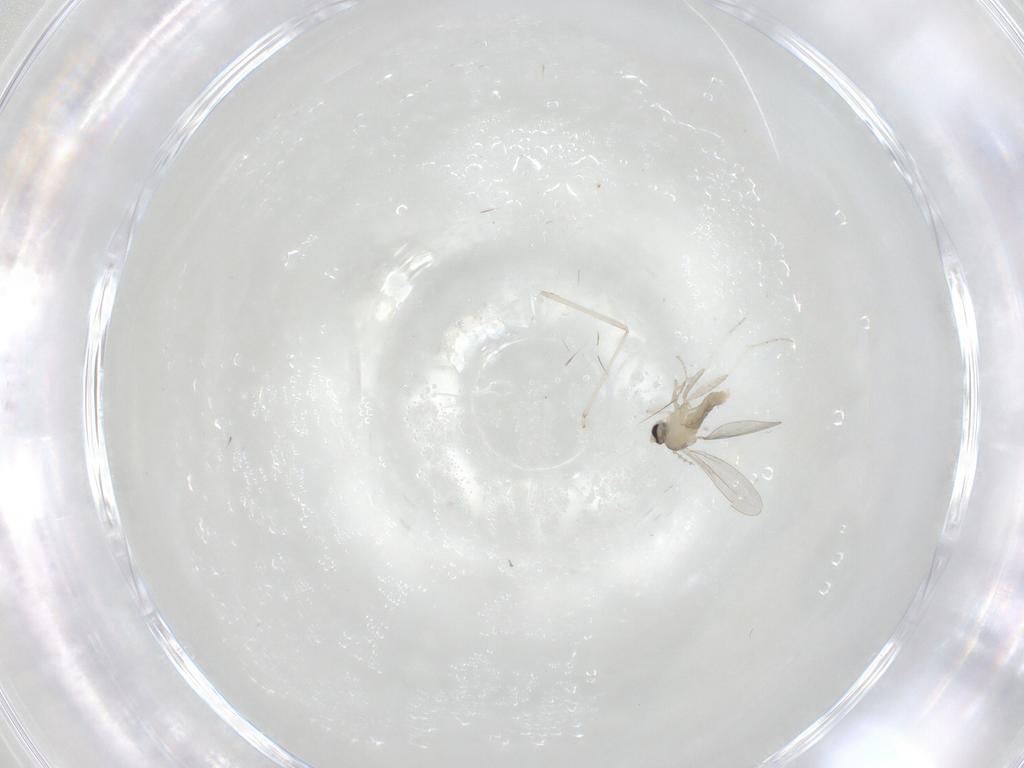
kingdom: Animalia
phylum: Arthropoda
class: Insecta
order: Diptera
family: Cecidomyiidae
